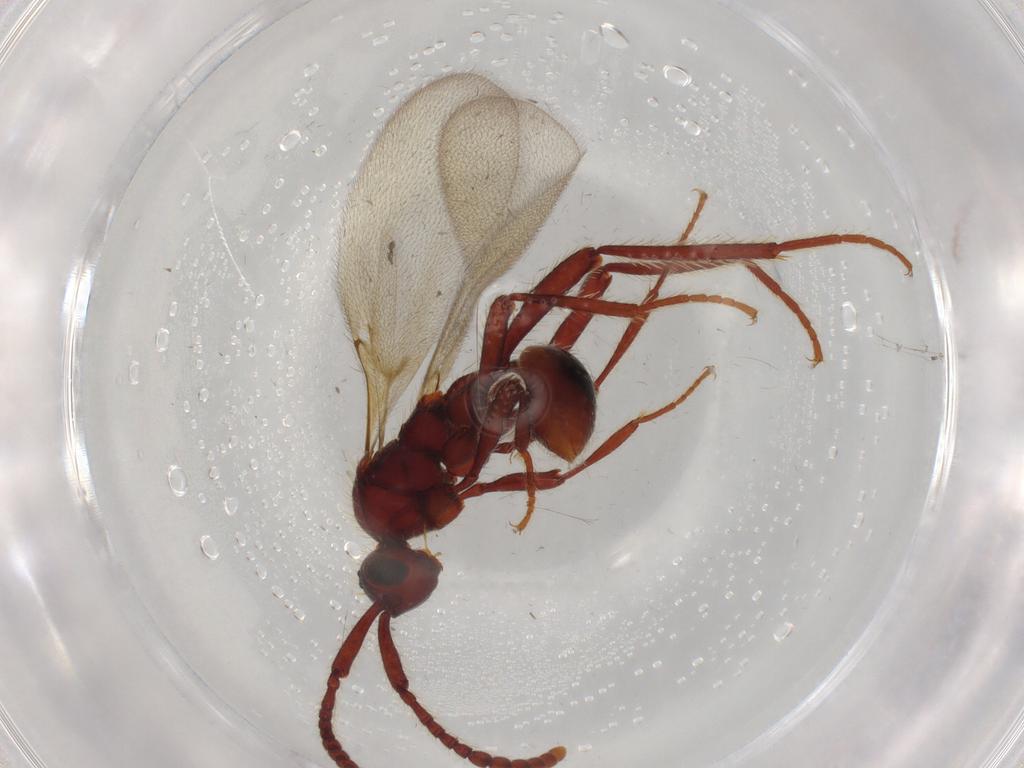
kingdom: Animalia
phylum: Arthropoda
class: Insecta
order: Hymenoptera
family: Diapriidae
